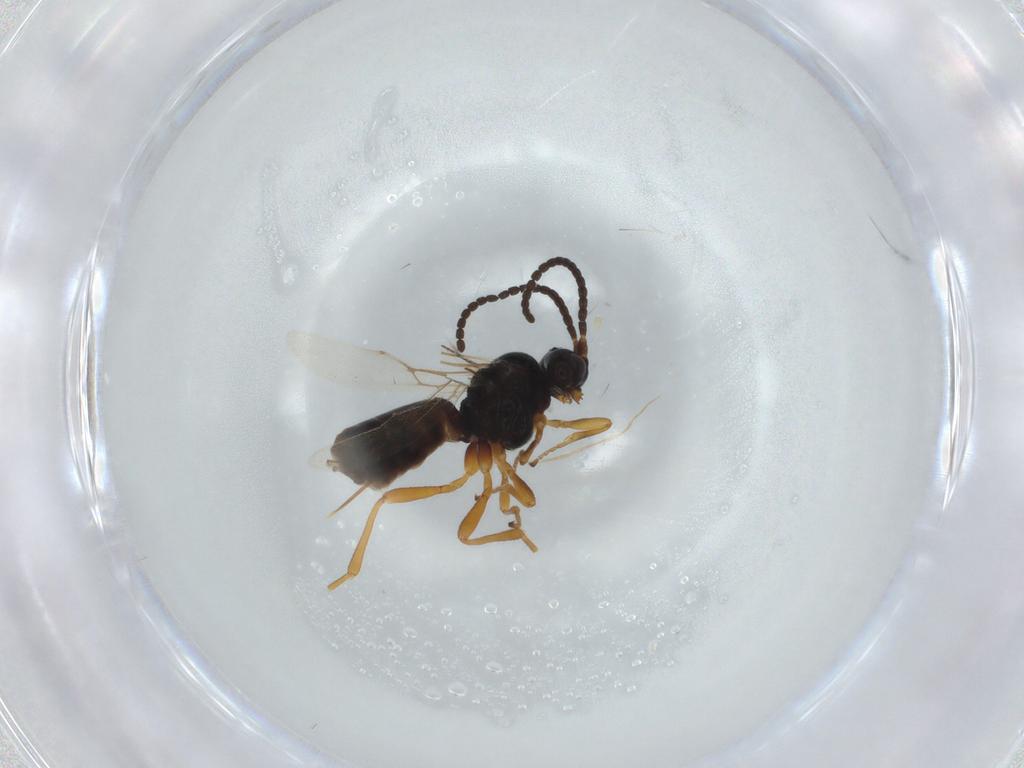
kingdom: Animalia
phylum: Arthropoda
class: Insecta
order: Hymenoptera
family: Braconidae
